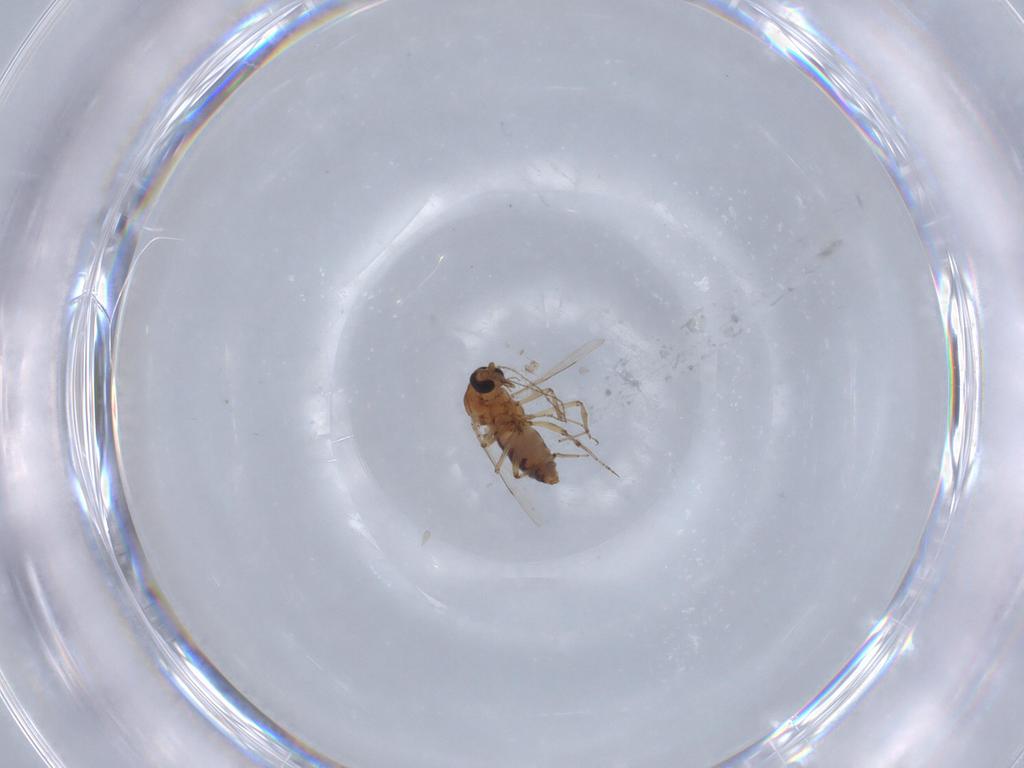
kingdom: Animalia
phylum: Arthropoda
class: Insecta
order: Diptera
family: Ceratopogonidae
